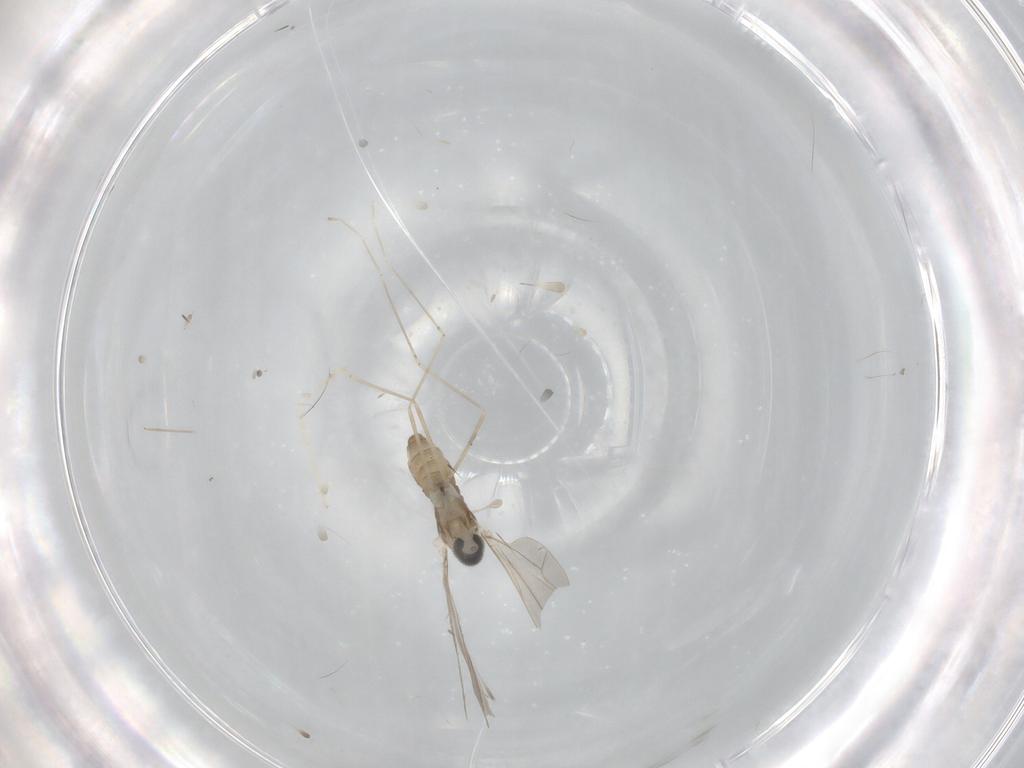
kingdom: Animalia
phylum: Arthropoda
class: Insecta
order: Diptera
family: Cecidomyiidae
